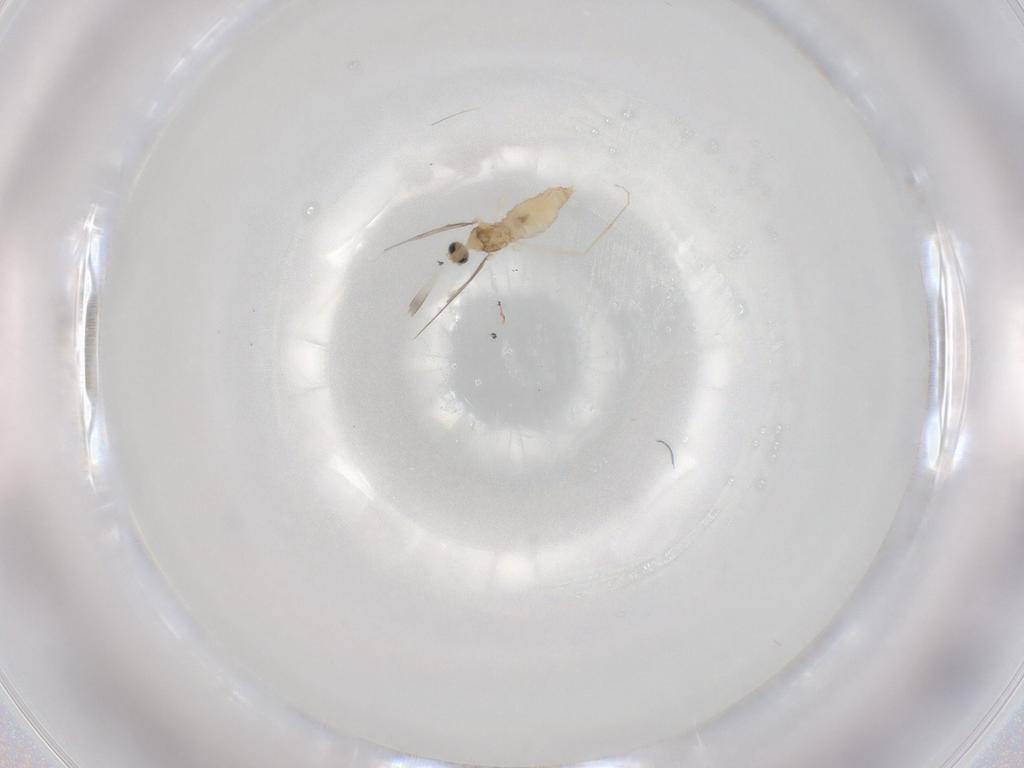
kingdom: Animalia
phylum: Arthropoda
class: Insecta
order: Diptera
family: Cecidomyiidae
